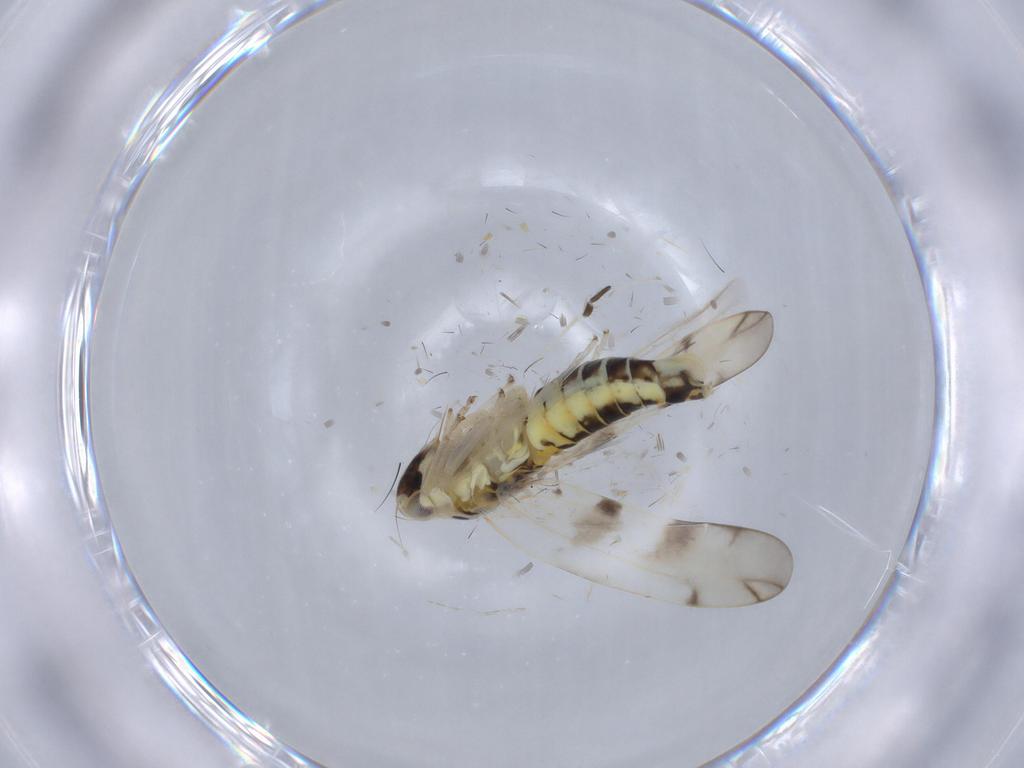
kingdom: Animalia
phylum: Arthropoda
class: Insecta
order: Hemiptera
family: Cicadellidae
